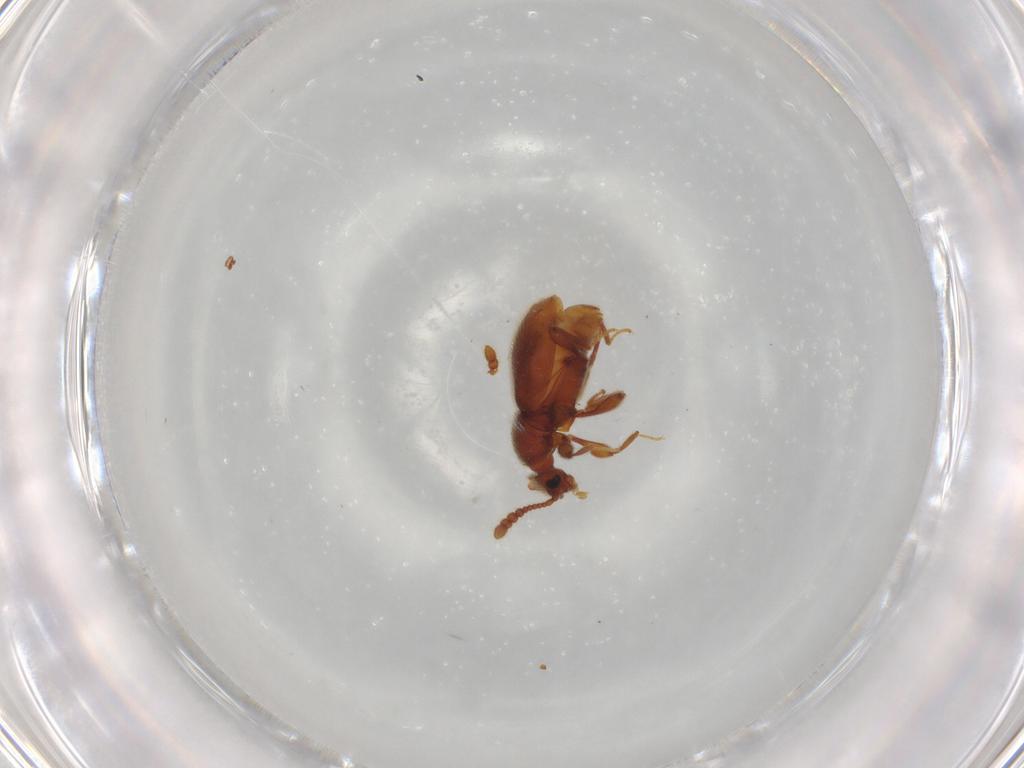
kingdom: Animalia
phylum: Arthropoda
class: Insecta
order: Coleoptera
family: Staphylinidae
